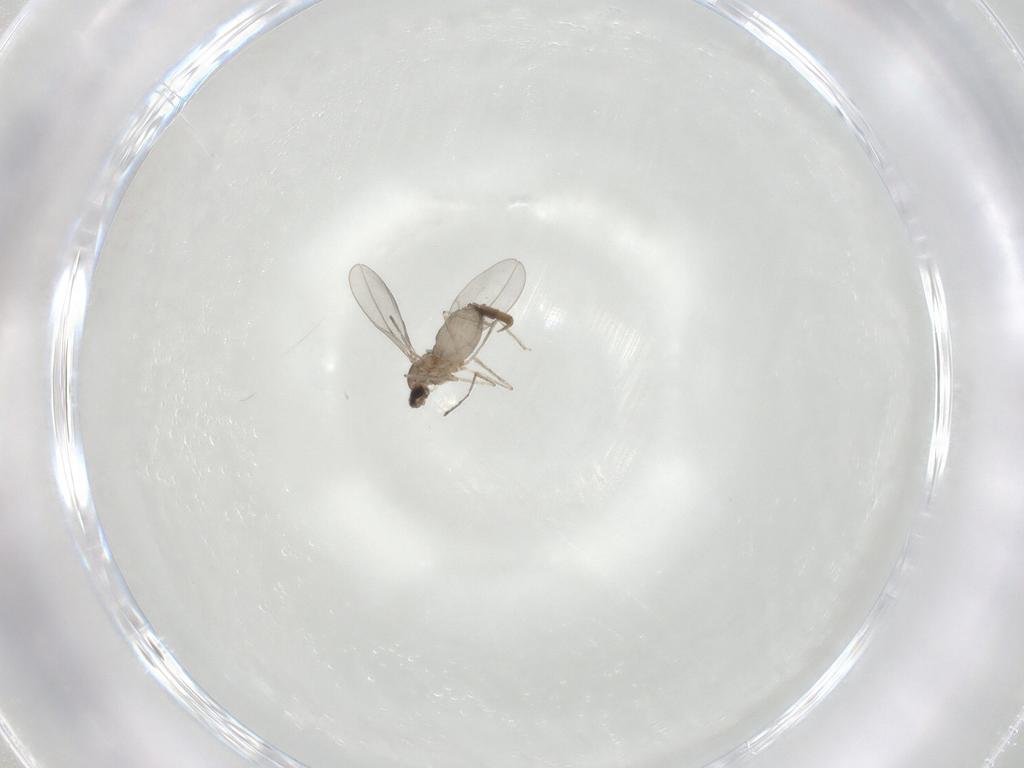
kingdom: Animalia
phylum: Arthropoda
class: Insecta
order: Diptera
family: Cecidomyiidae
